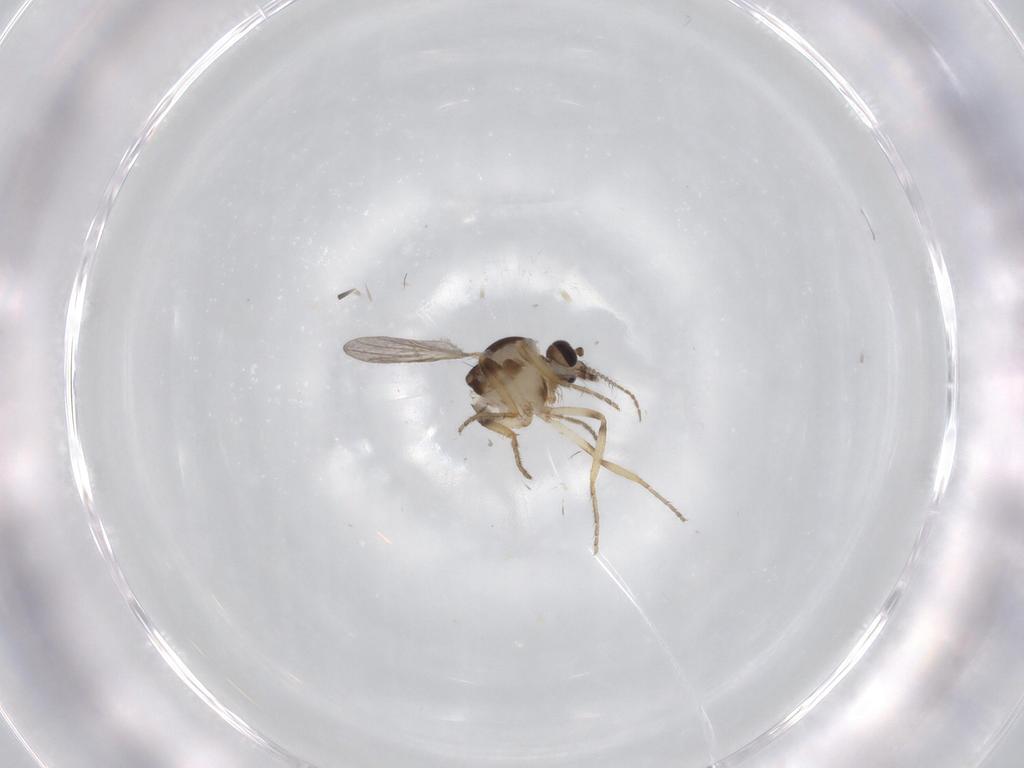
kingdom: Animalia
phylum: Arthropoda
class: Insecta
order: Diptera
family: Ceratopogonidae
